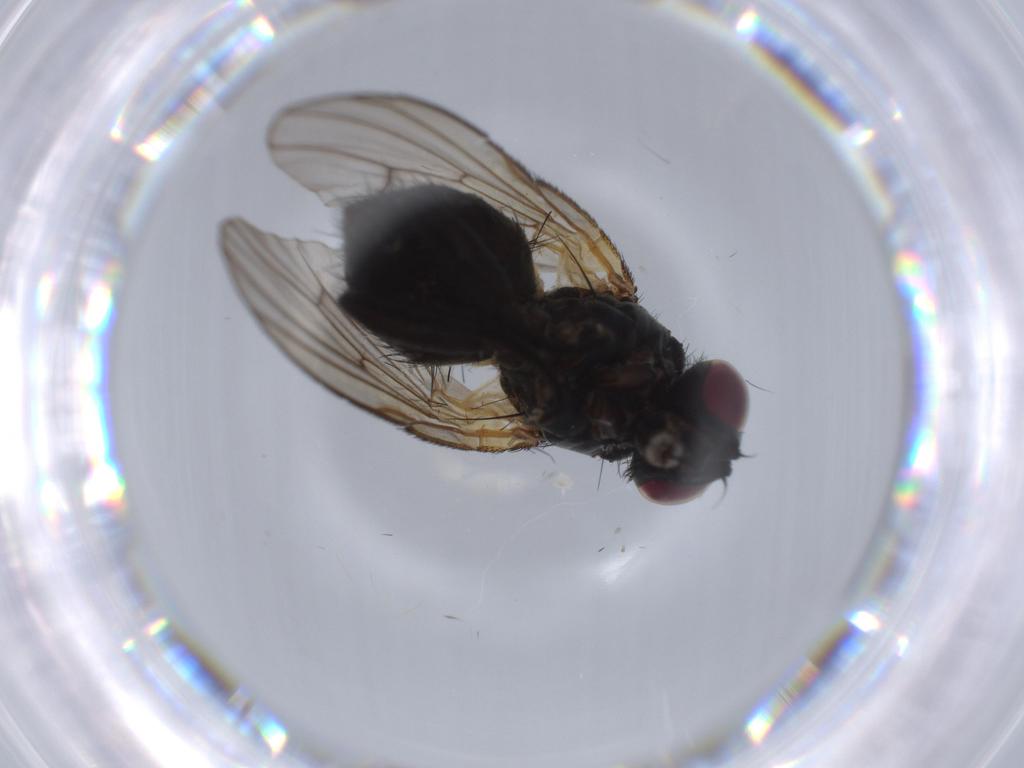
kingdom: Animalia
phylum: Arthropoda
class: Insecta
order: Diptera
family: Muscidae
